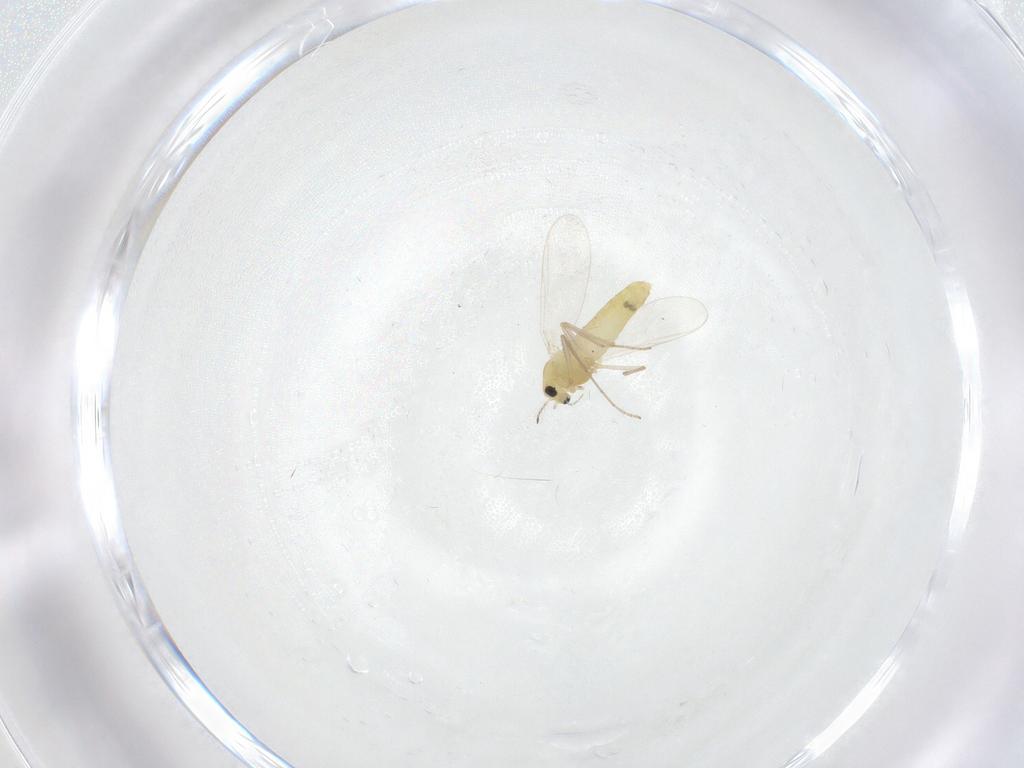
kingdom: Animalia
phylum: Arthropoda
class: Insecta
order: Diptera
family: Chironomidae
